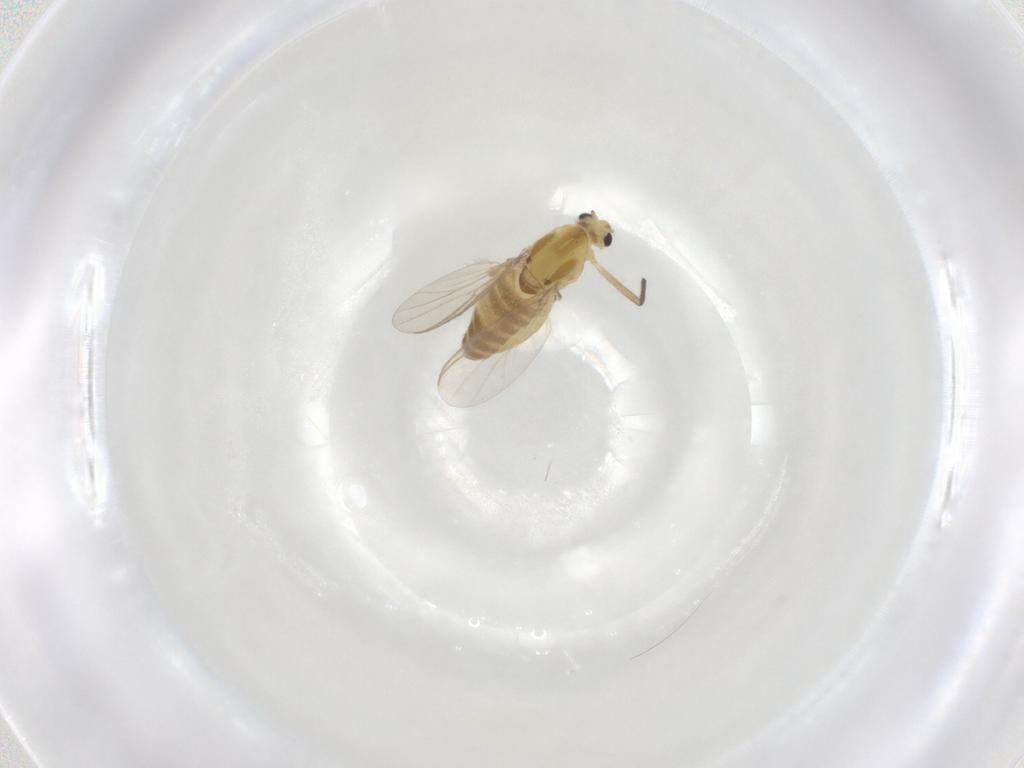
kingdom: Animalia
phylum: Arthropoda
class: Insecta
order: Diptera
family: Chironomidae
